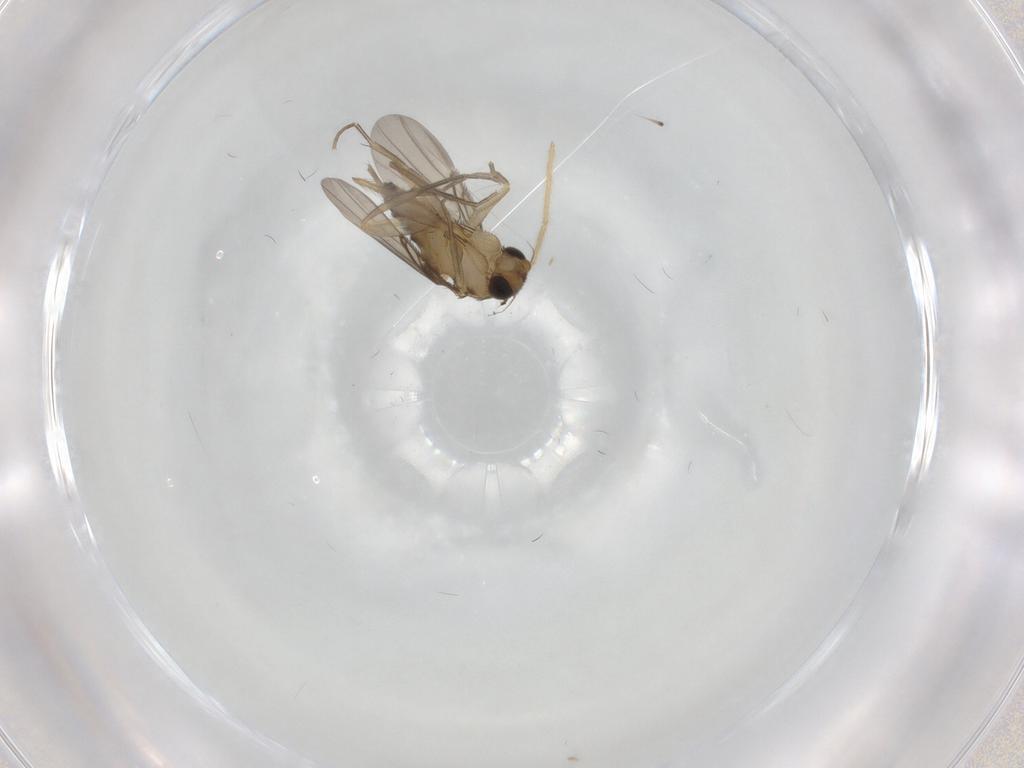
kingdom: Animalia
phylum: Arthropoda
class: Insecta
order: Diptera
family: Phoridae
